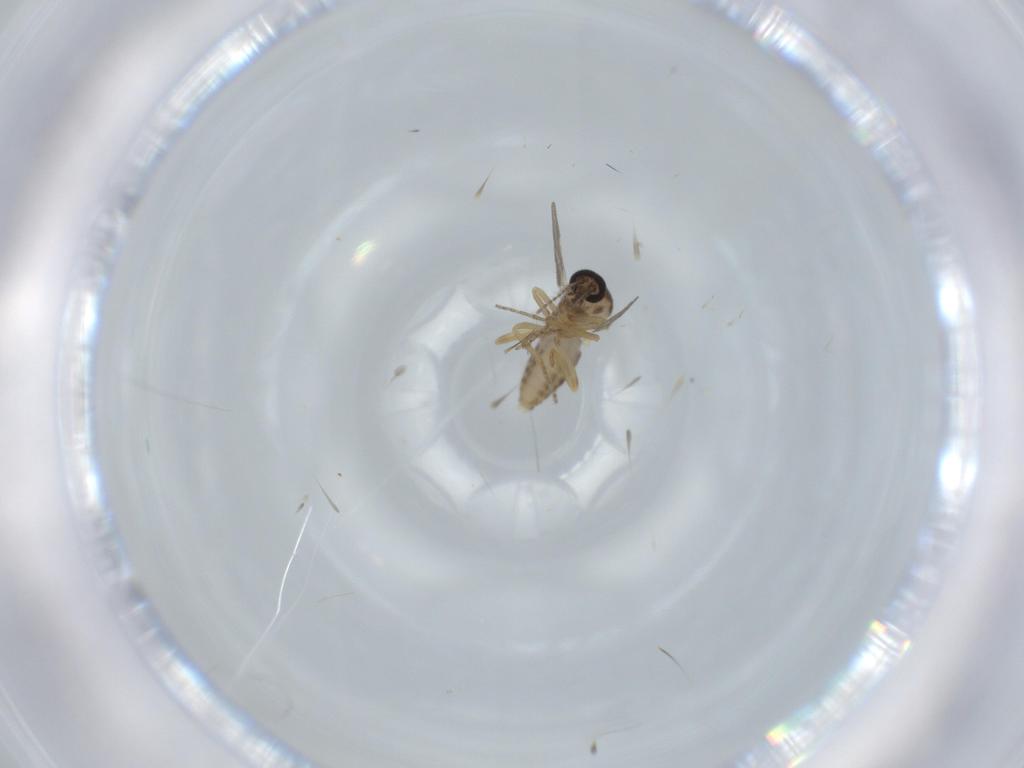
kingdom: Animalia
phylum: Arthropoda
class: Insecta
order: Diptera
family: Ceratopogonidae
